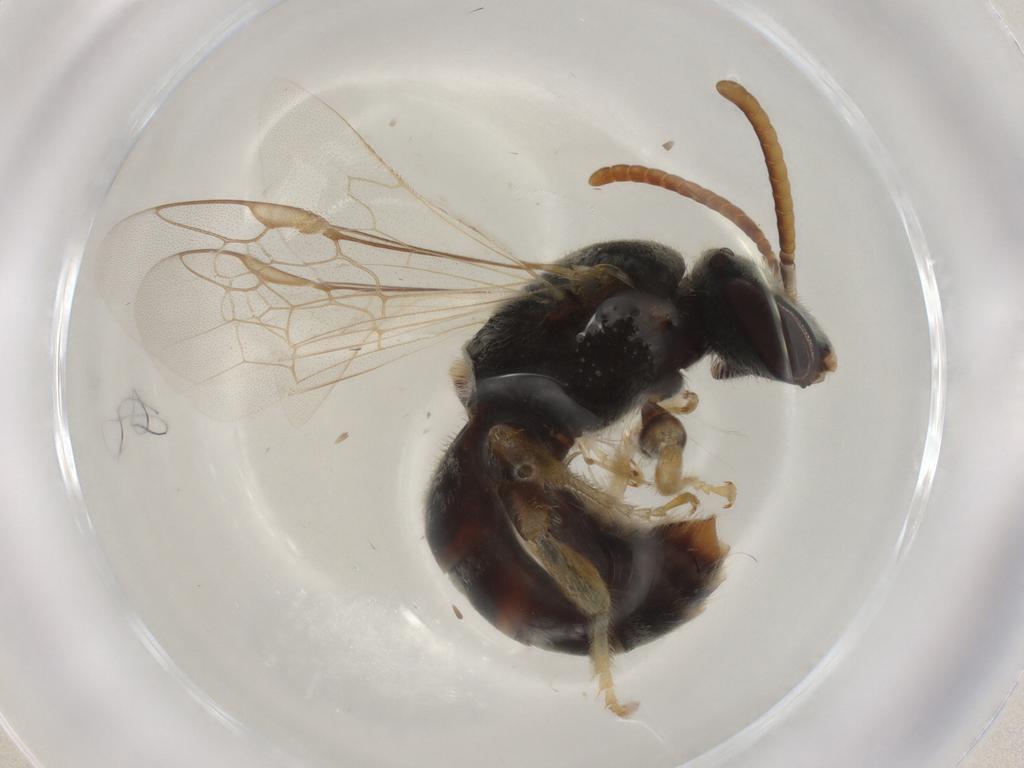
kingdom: Animalia
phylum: Arthropoda
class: Insecta
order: Hymenoptera
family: Halictidae
